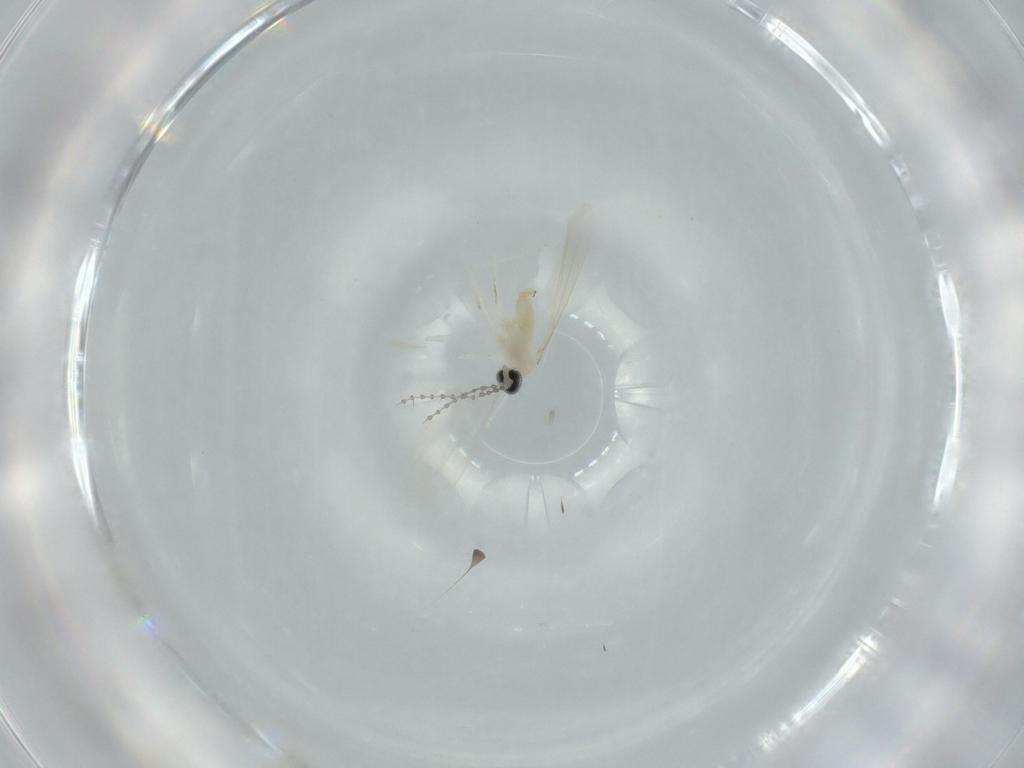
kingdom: Animalia
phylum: Arthropoda
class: Insecta
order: Diptera
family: Cecidomyiidae
